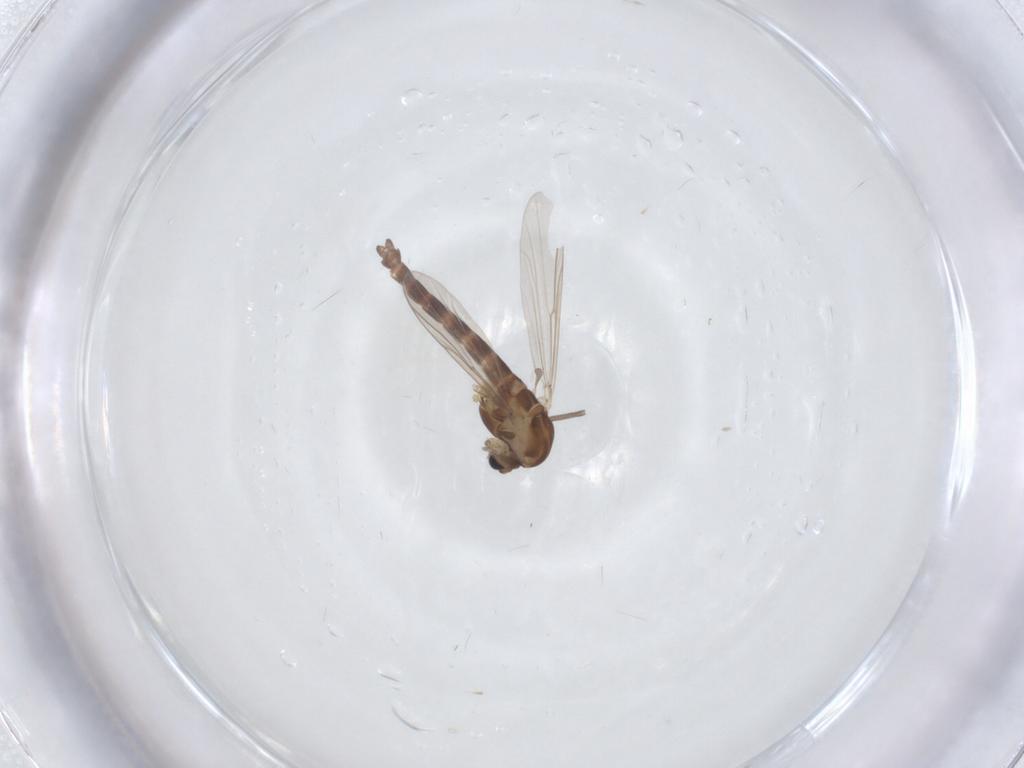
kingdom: Animalia
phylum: Arthropoda
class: Insecta
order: Diptera
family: Chironomidae
